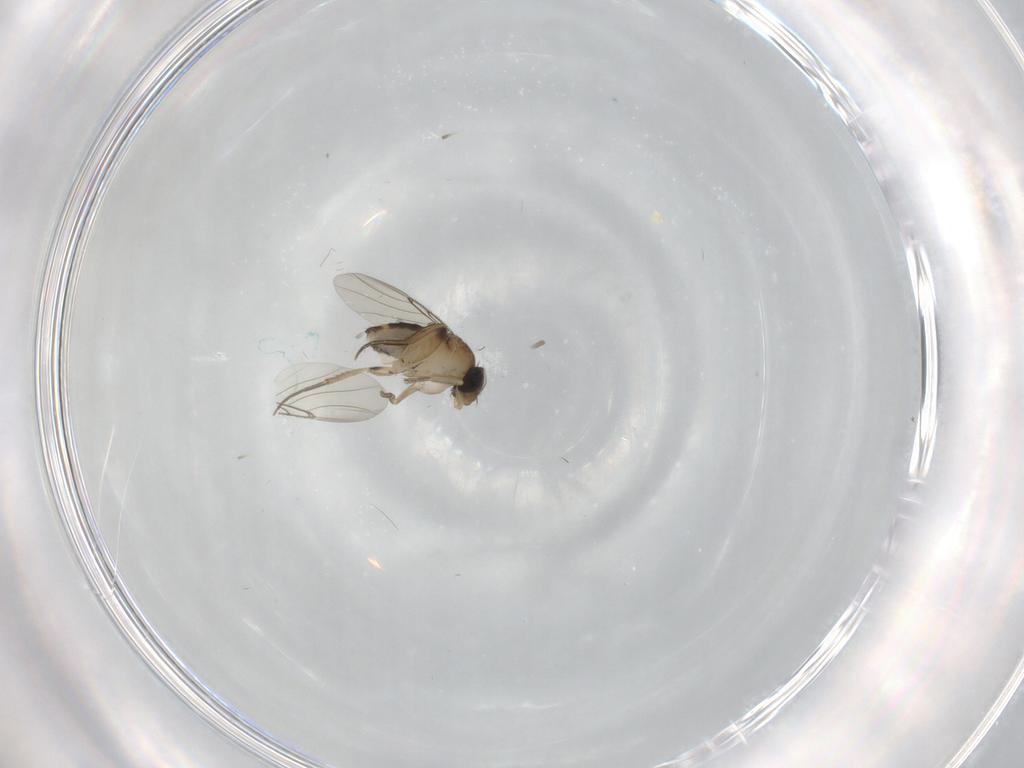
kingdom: Animalia
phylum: Arthropoda
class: Insecta
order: Diptera
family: Phoridae
